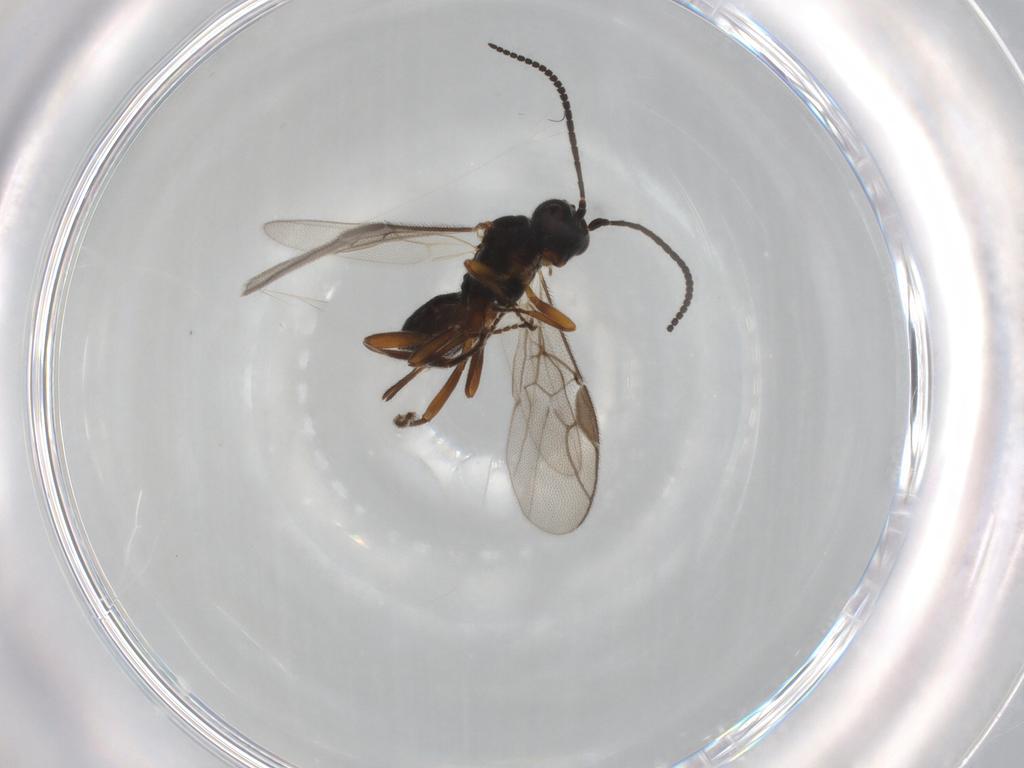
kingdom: Animalia
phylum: Arthropoda
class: Insecta
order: Hymenoptera
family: Braconidae
